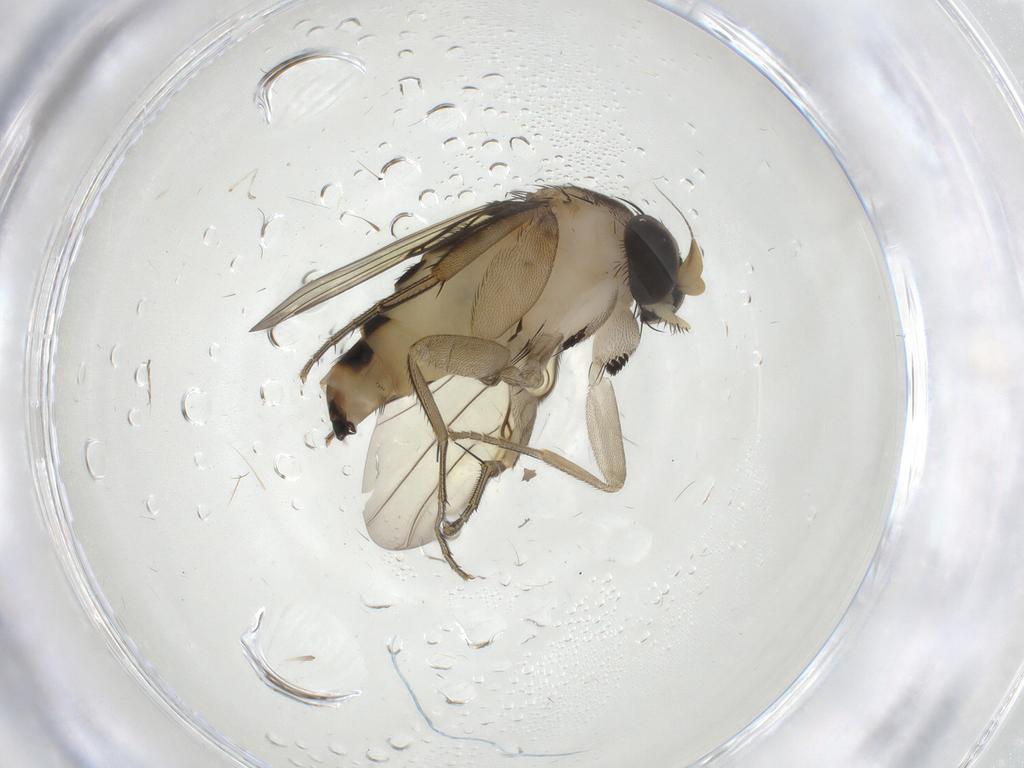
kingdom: Animalia
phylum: Arthropoda
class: Insecta
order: Diptera
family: Phoridae
